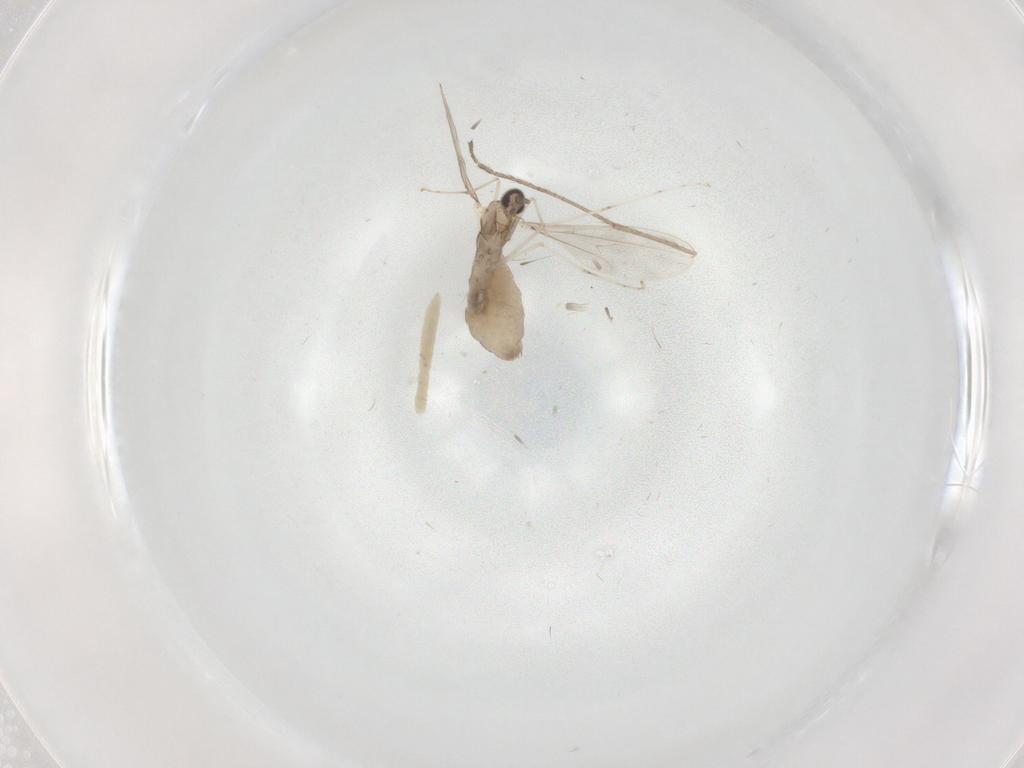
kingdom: Animalia
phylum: Arthropoda
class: Insecta
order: Diptera
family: Cecidomyiidae
